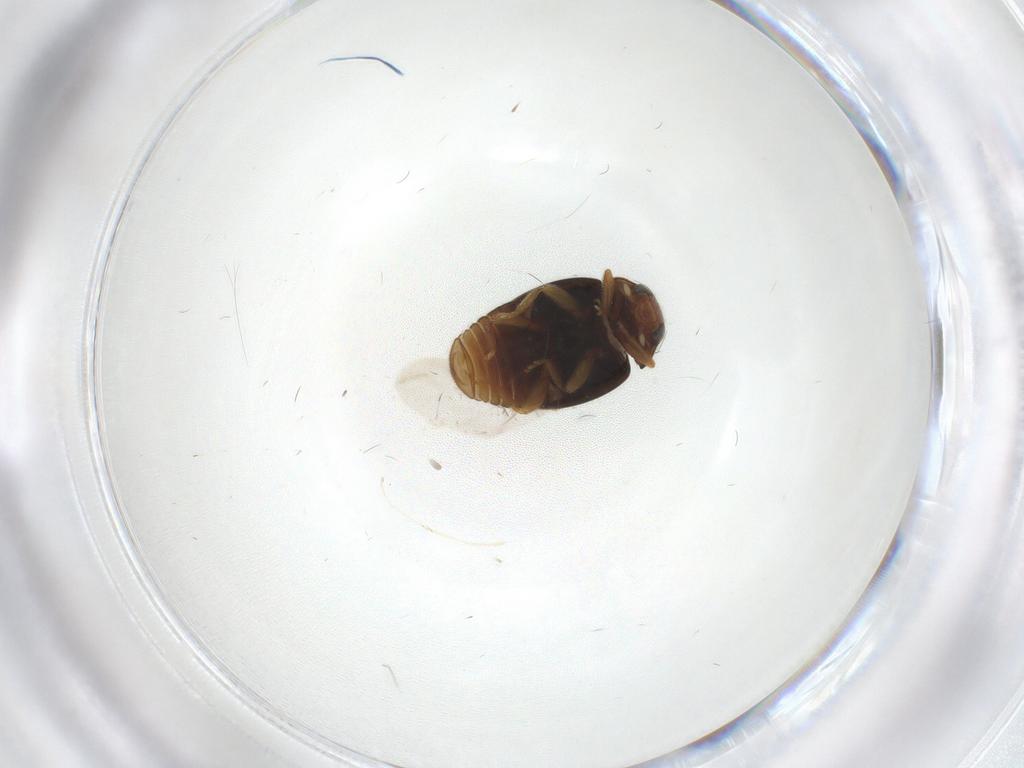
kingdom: Animalia
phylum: Arthropoda
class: Insecta
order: Coleoptera
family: Coccinellidae
